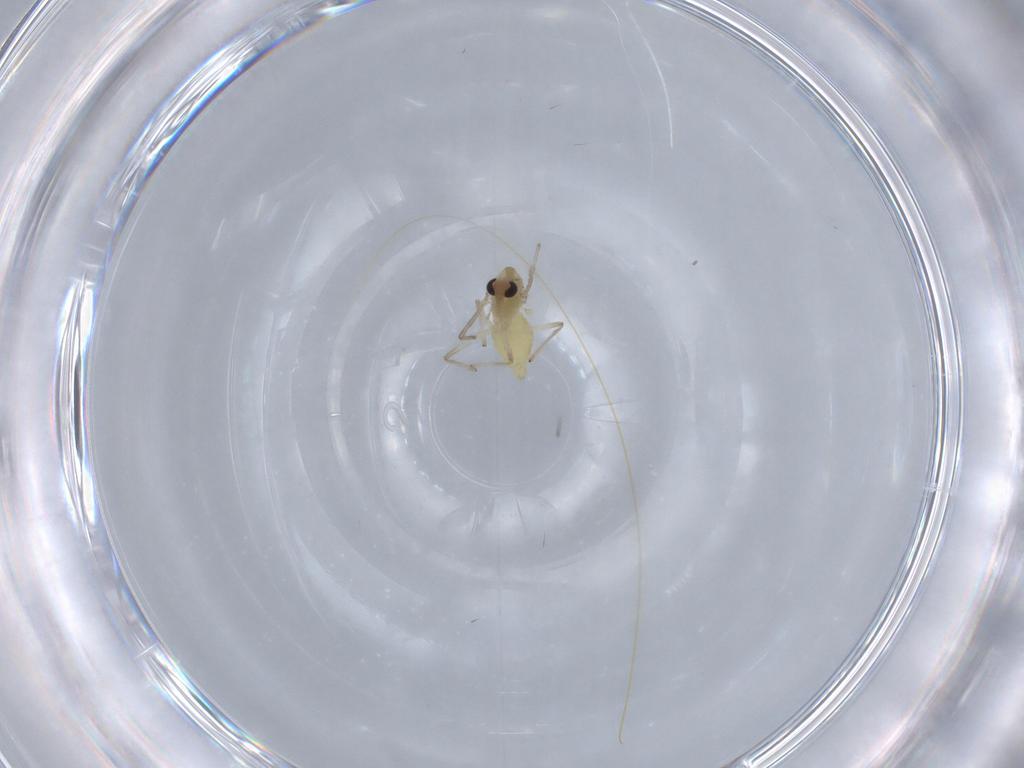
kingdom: Animalia
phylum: Arthropoda
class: Insecta
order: Diptera
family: Chironomidae
